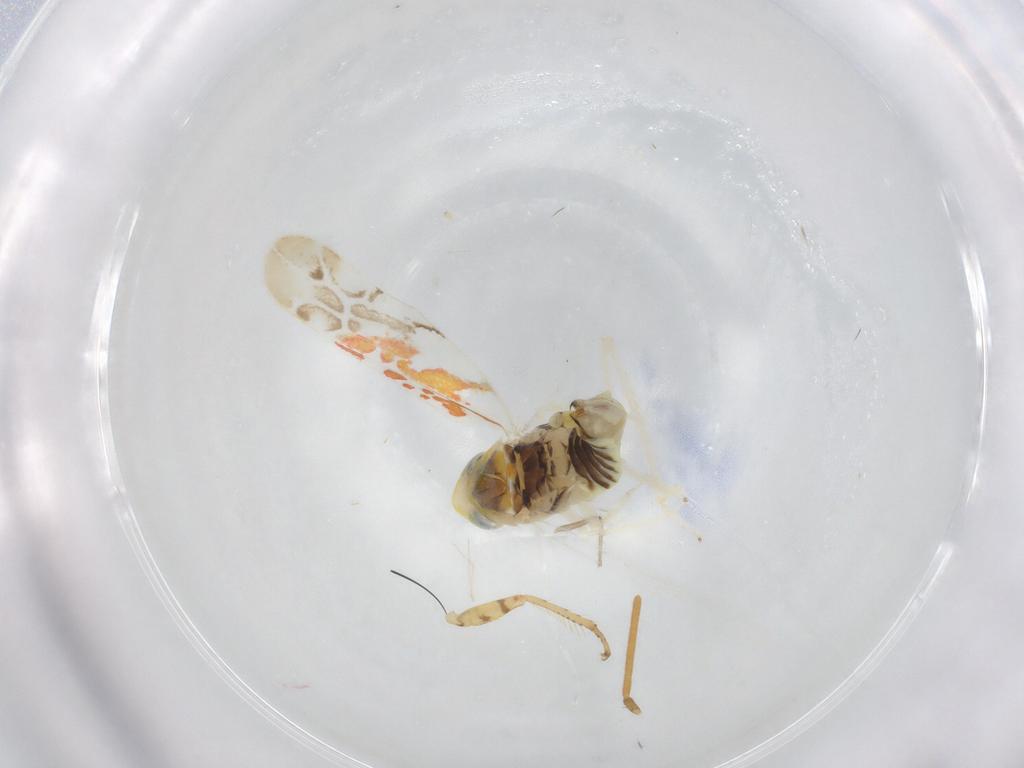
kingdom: Animalia
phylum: Arthropoda
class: Insecta
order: Hemiptera
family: Cicadellidae
